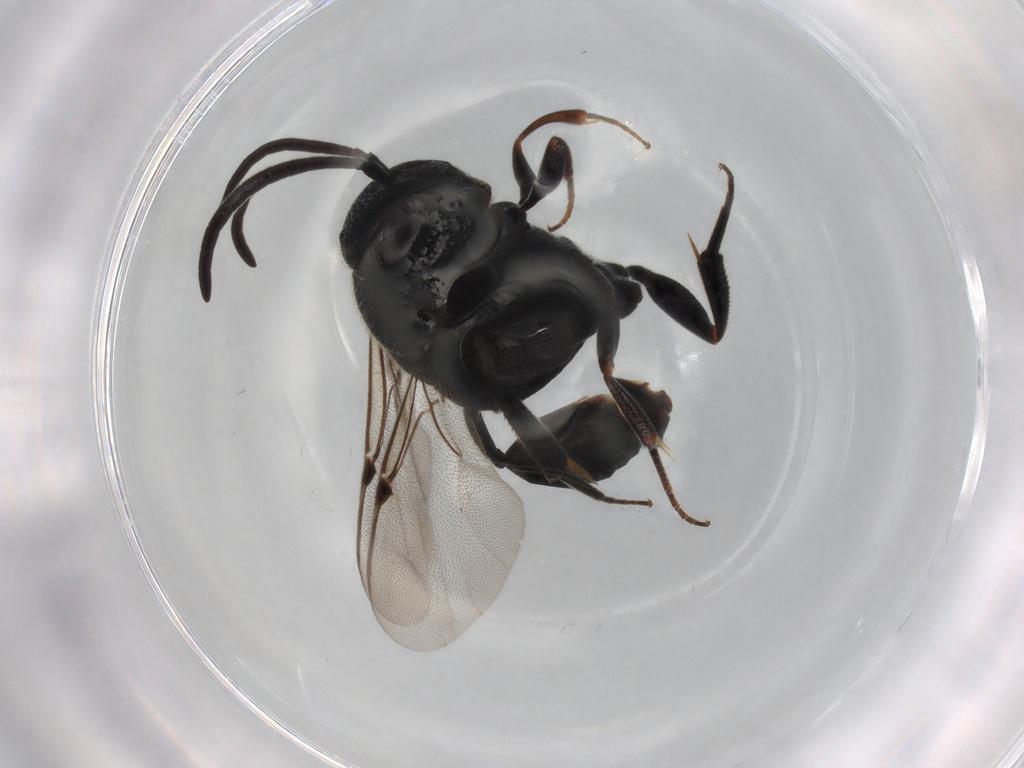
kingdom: Animalia
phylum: Arthropoda
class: Insecta
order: Hymenoptera
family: Evaniidae
